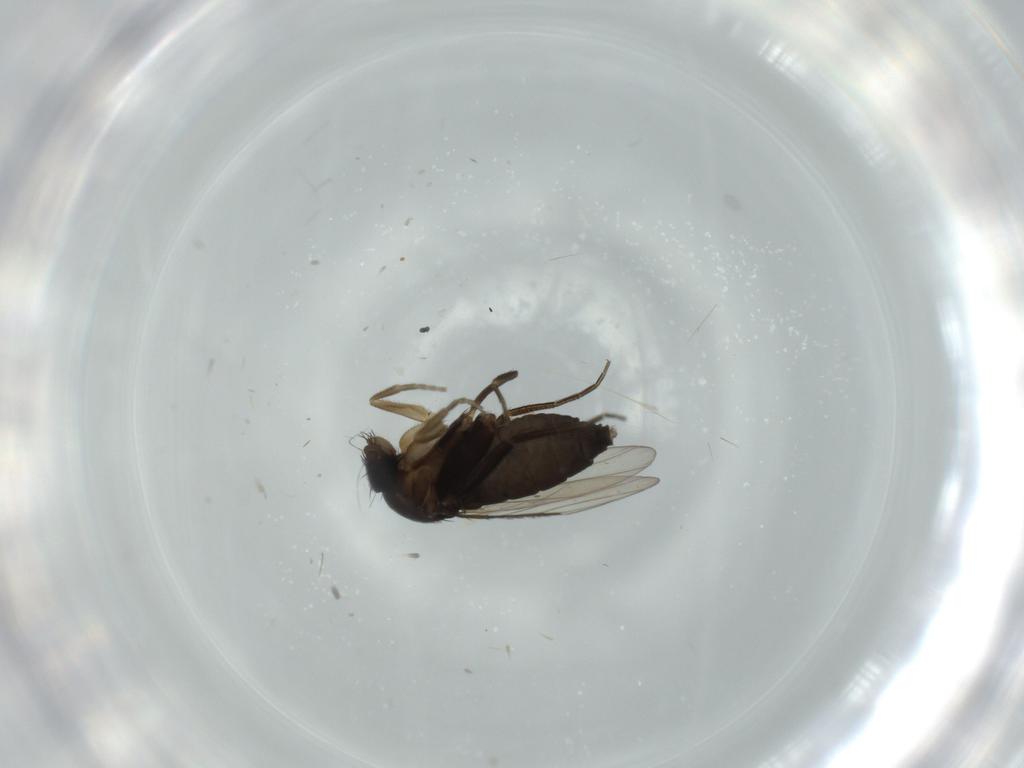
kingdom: Animalia
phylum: Arthropoda
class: Insecta
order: Diptera
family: Phoridae
